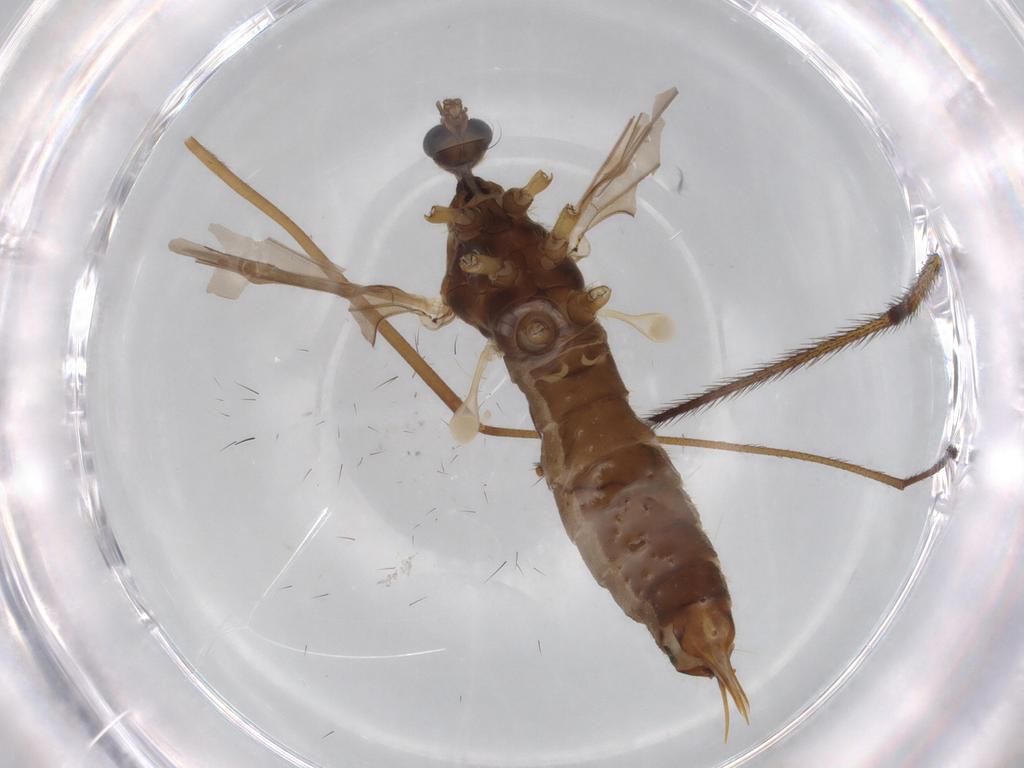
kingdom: Animalia
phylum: Arthropoda
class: Insecta
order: Diptera
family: Limoniidae
